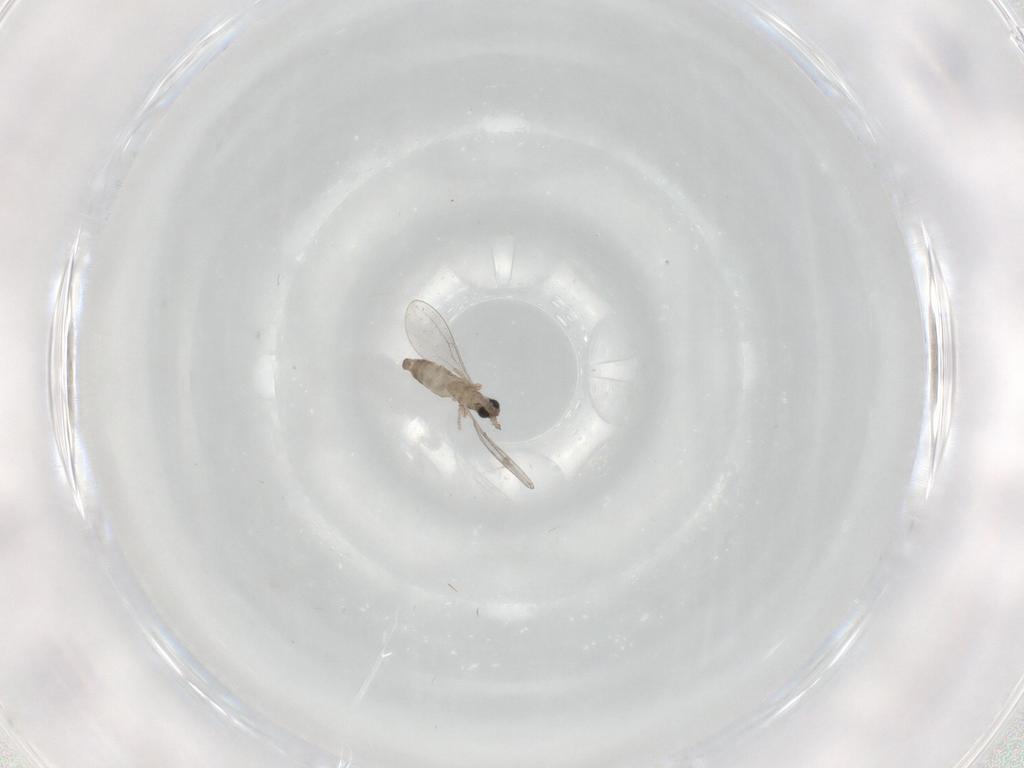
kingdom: Animalia
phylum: Arthropoda
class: Insecta
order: Diptera
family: Cecidomyiidae
